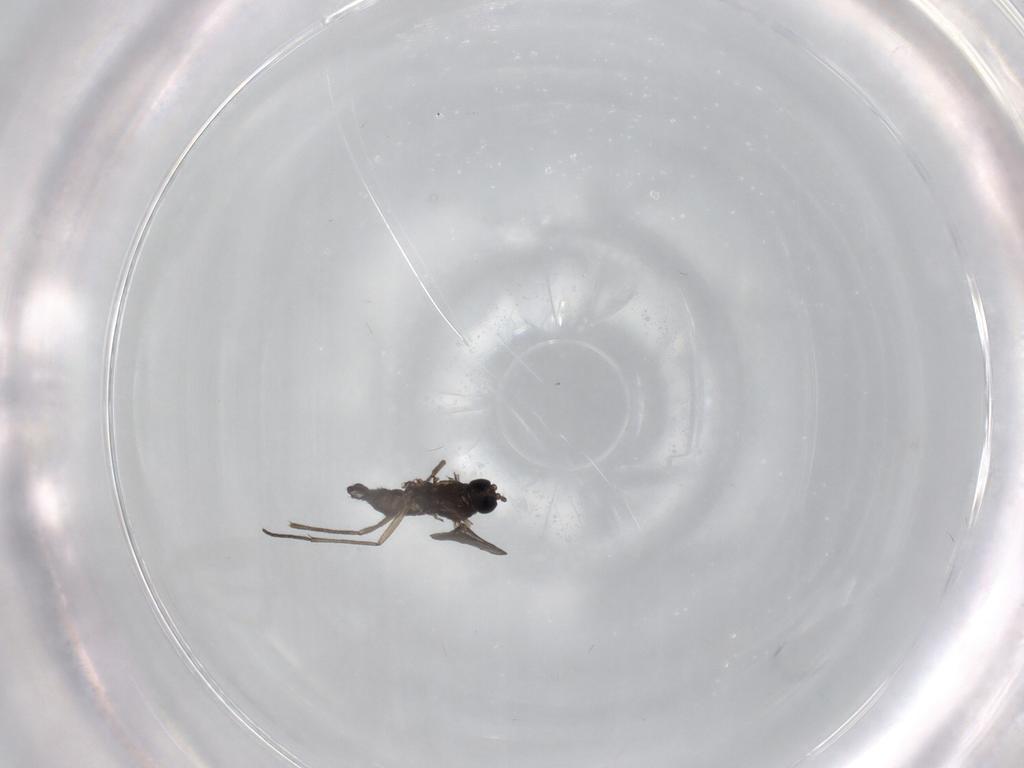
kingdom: Animalia
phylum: Arthropoda
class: Insecta
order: Diptera
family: Sciaridae
